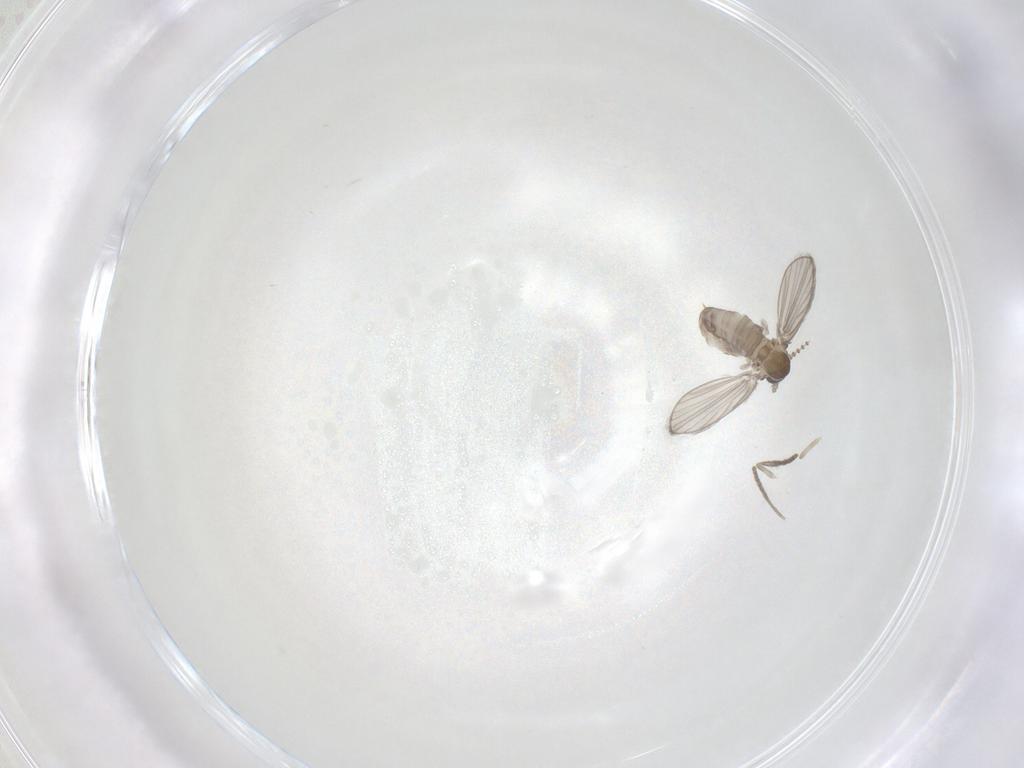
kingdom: Animalia
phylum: Arthropoda
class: Insecta
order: Diptera
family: Psychodidae
